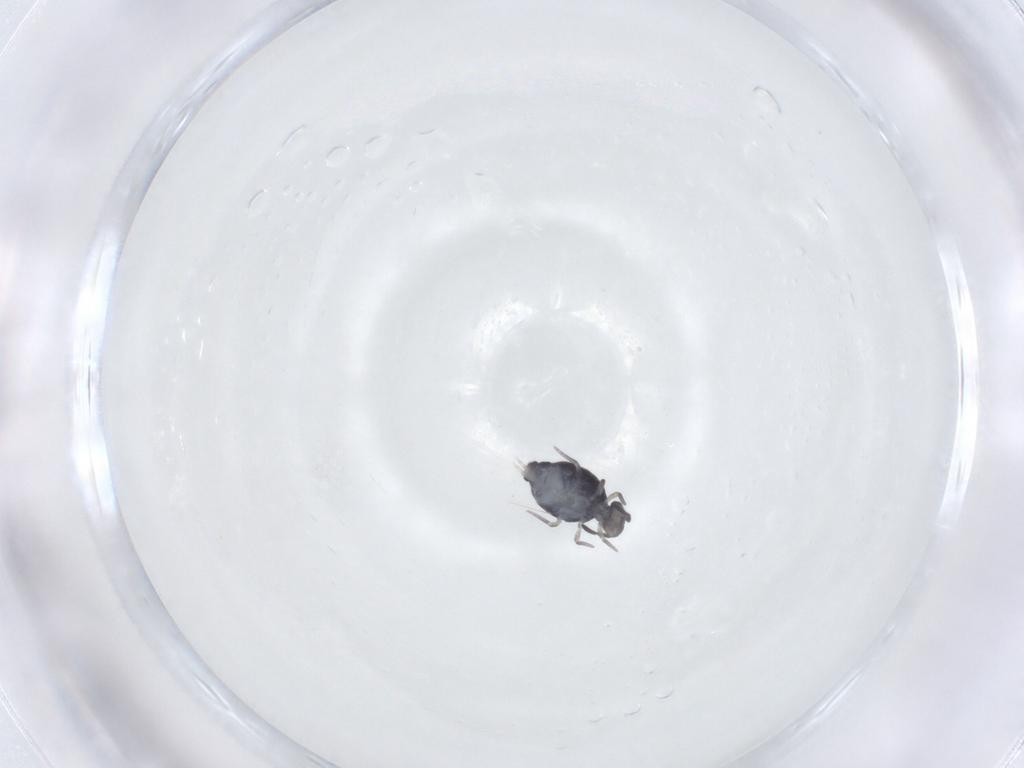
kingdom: Animalia
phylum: Arthropoda
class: Collembola
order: Symphypleona
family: Katiannidae
